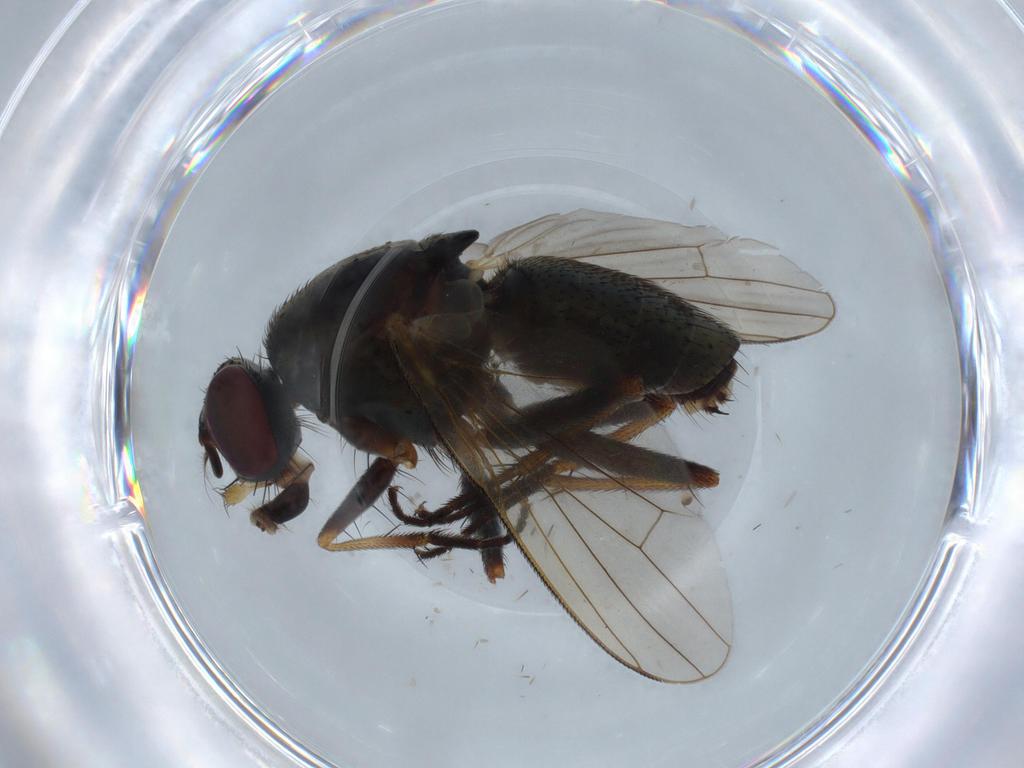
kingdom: Animalia
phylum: Arthropoda
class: Insecta
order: Diptera
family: Muscidae
